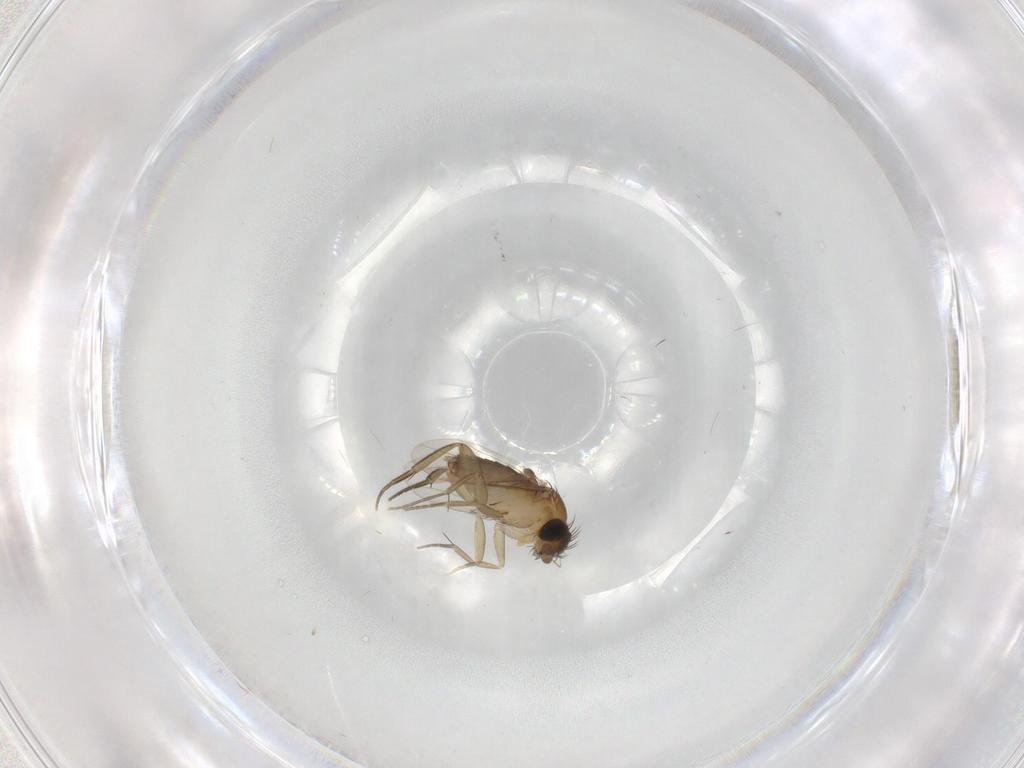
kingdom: Animalia
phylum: Arthropoda
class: Insecta
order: Diptera
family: Phoridae
